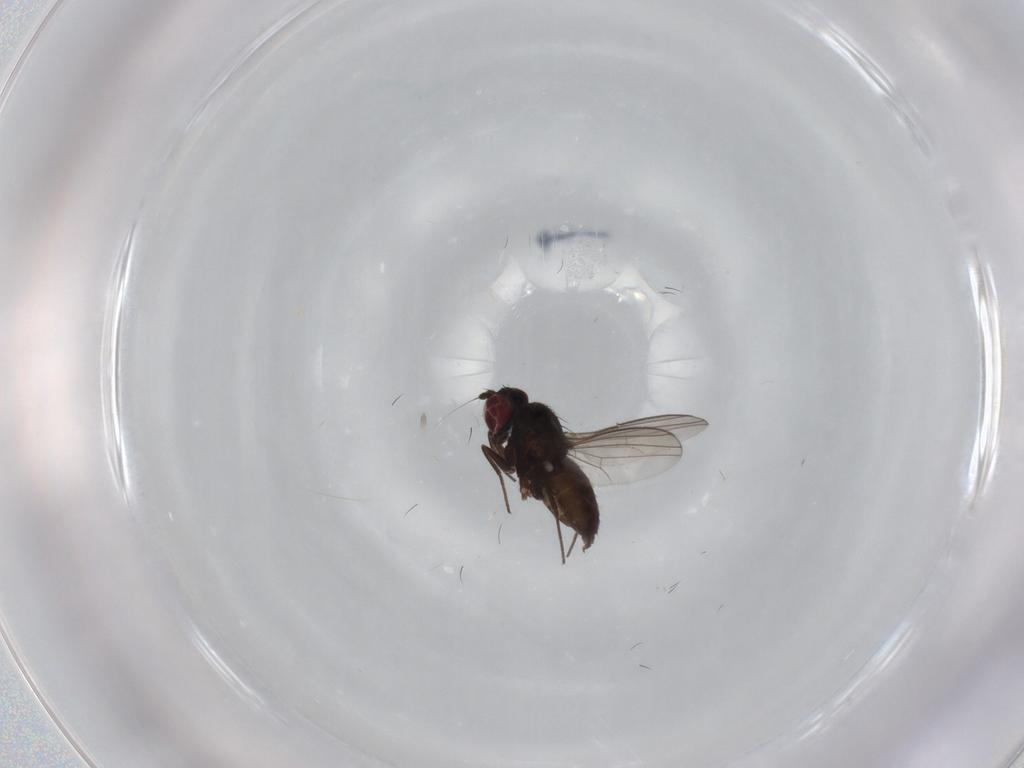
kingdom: Animalia
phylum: Arthropoda
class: Insecta
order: Diptera
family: Dolichopodidae
